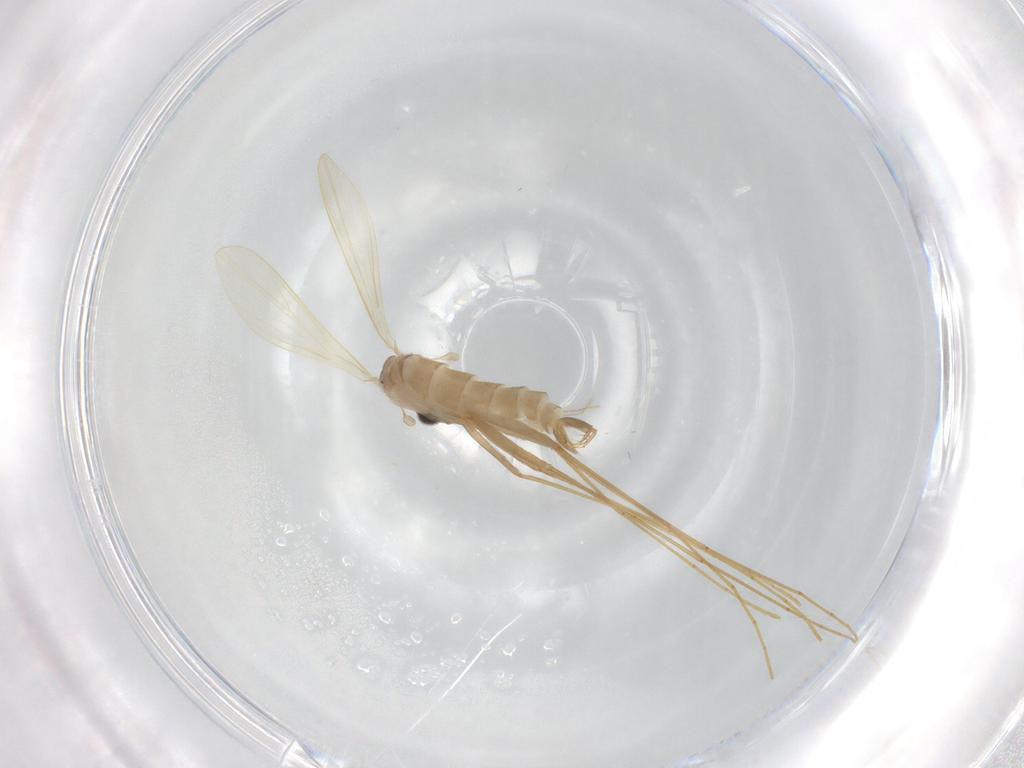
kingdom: Animalia
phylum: Arthropoda
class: Insecta
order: Diptera
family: Psychodidae
